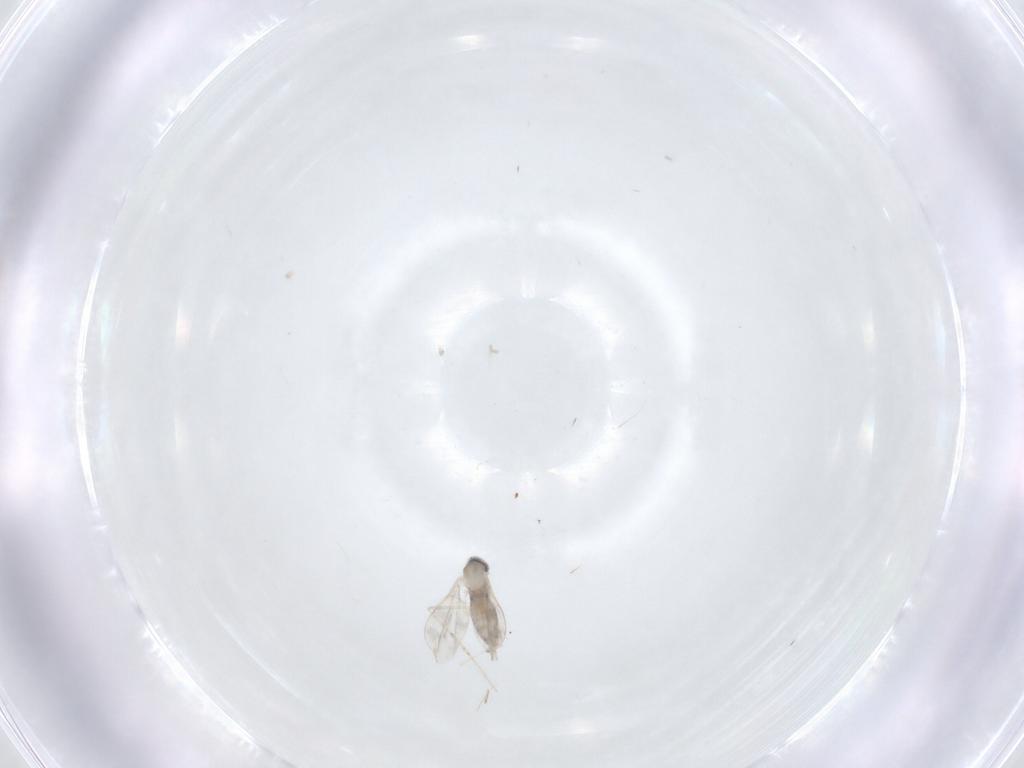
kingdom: Animalia
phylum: Arthropoda
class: Insecta
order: Diptera
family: Cecidomyiidae
